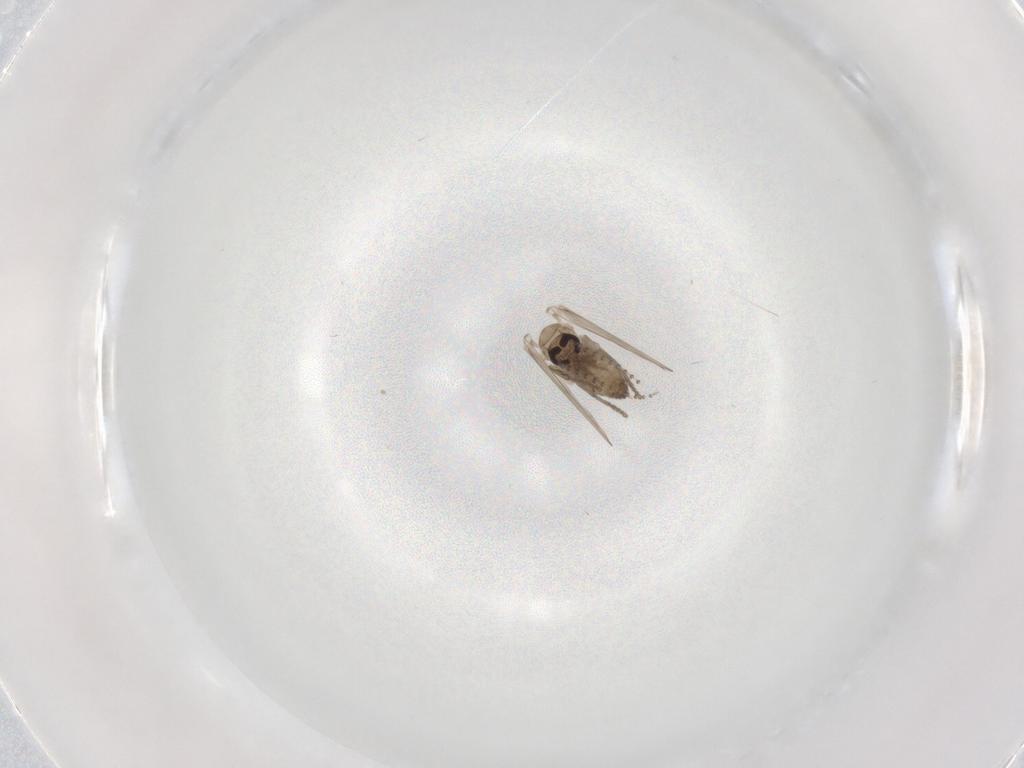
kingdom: Animalia
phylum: Arthropoda
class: Insecta
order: Diptera
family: Psychodidae
